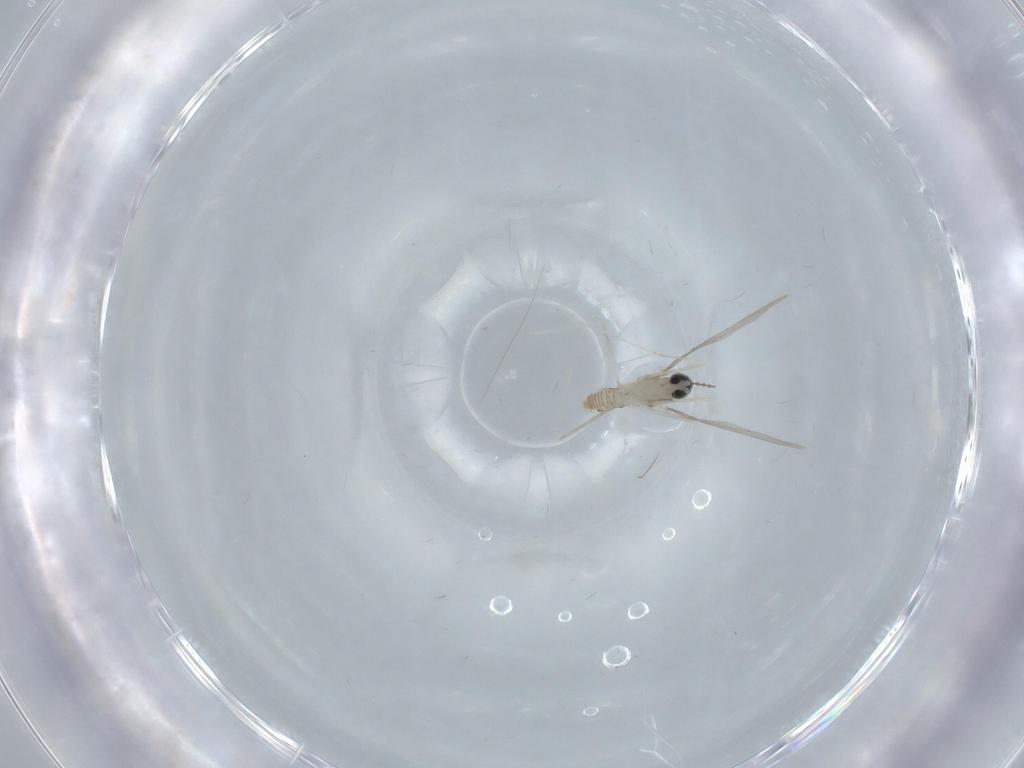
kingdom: Animalia
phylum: Arthropoda
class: Insecta
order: Diptera
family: Cecidomyiidae
